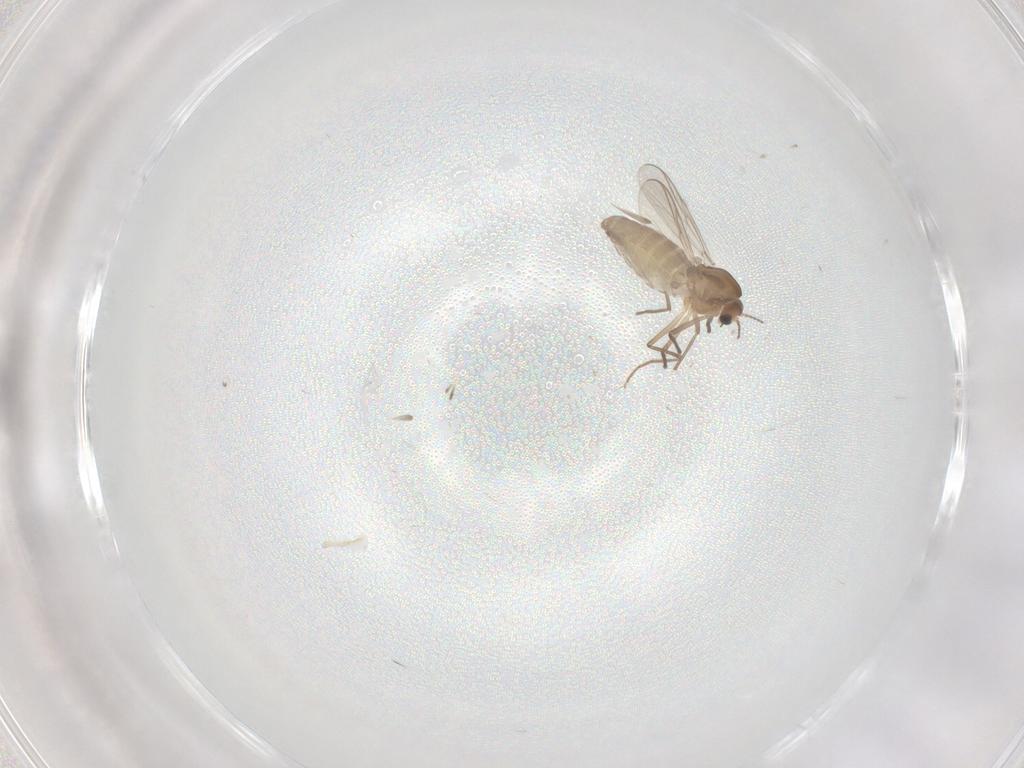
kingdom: Animalia
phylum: Arthropoda
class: Insecta
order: Diptera
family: Chironomidae
